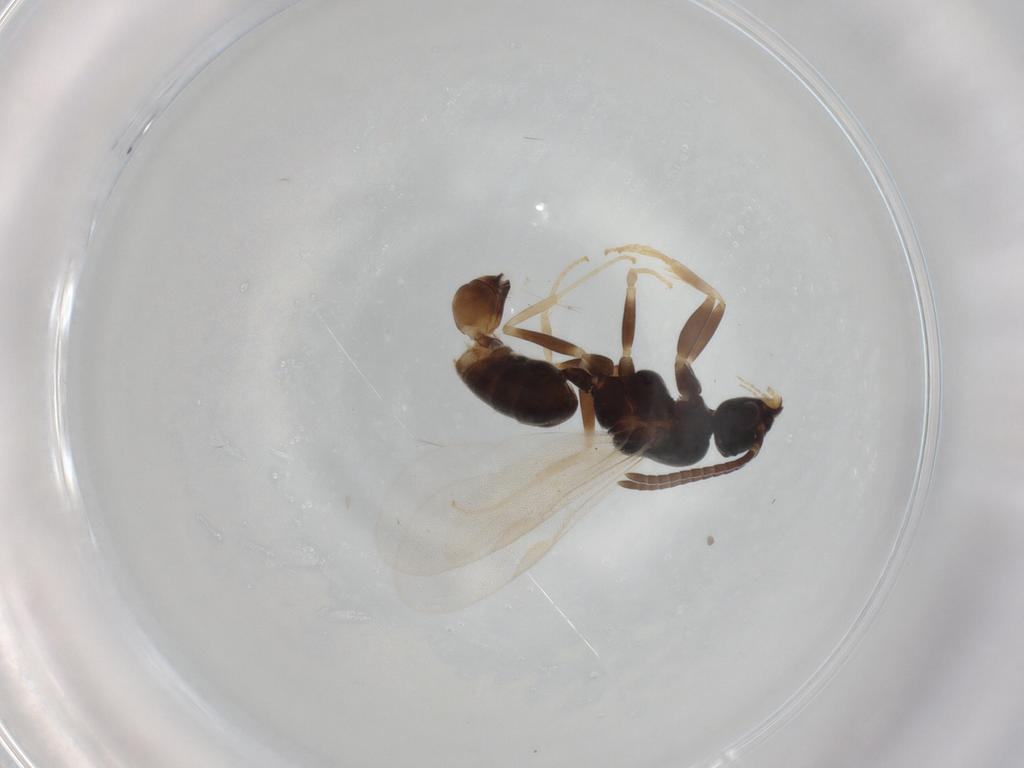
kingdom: Animalia
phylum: Arthropoda
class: Insecta
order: Hymenoptera
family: Formicidae
